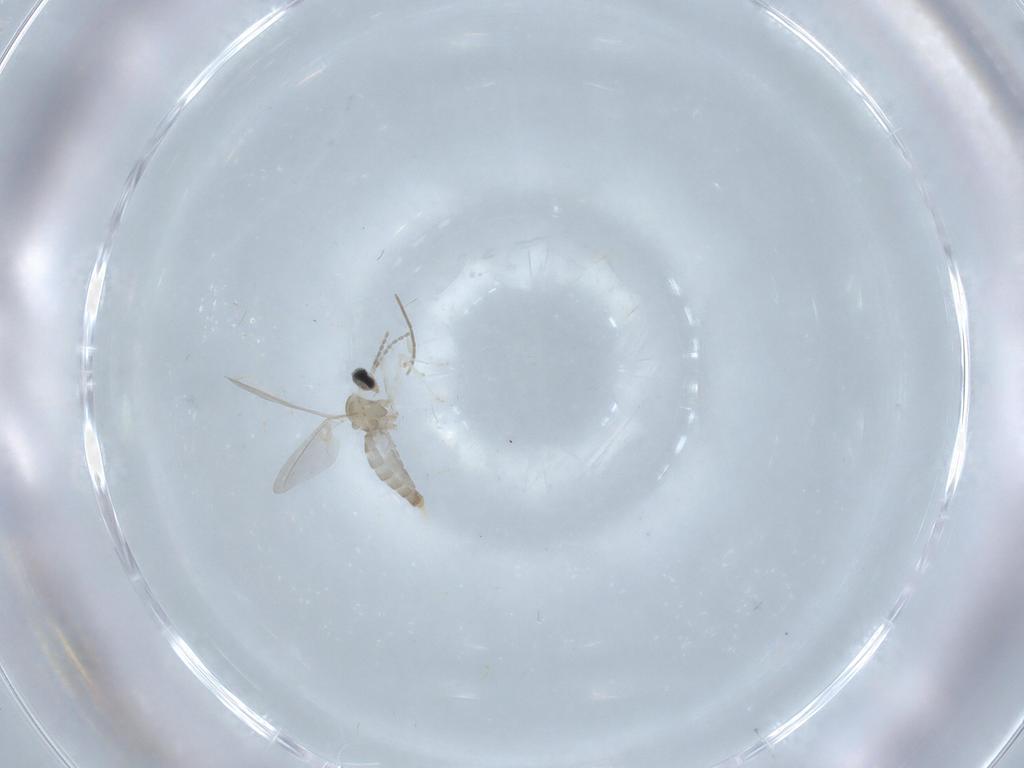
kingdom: Animalia
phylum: Arthropoda
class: Insecta
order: Diptera
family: Cecidomyiidae
